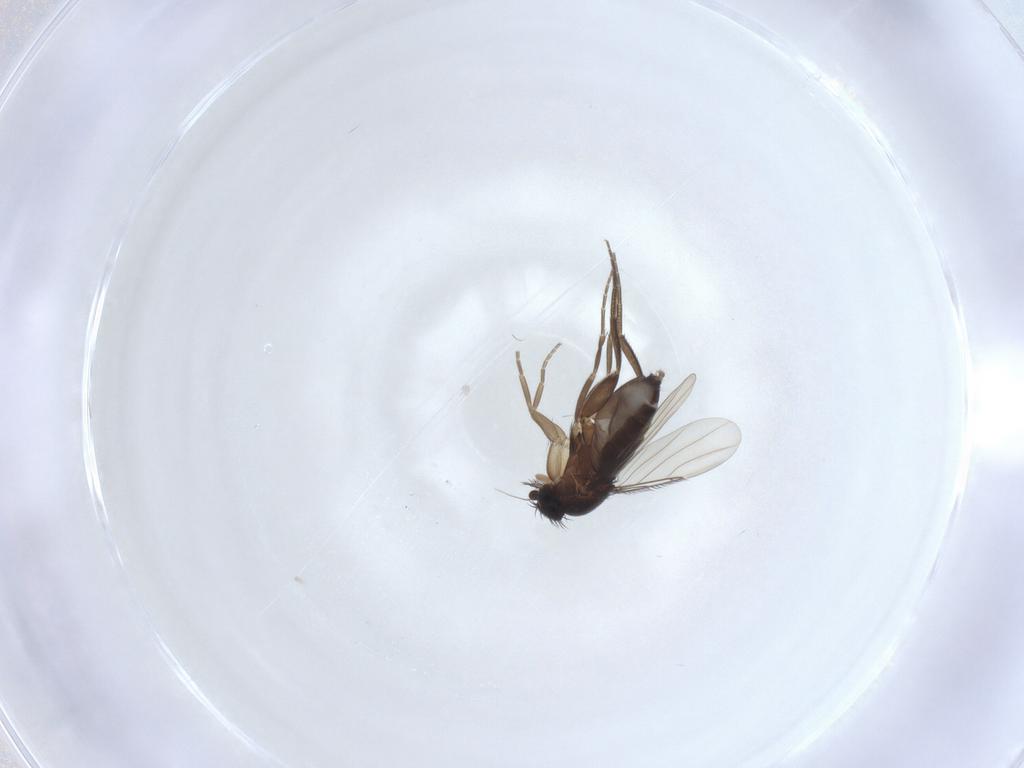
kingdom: Animalia
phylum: Arthropoda
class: Insecta
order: Diptera
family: Phoridae
